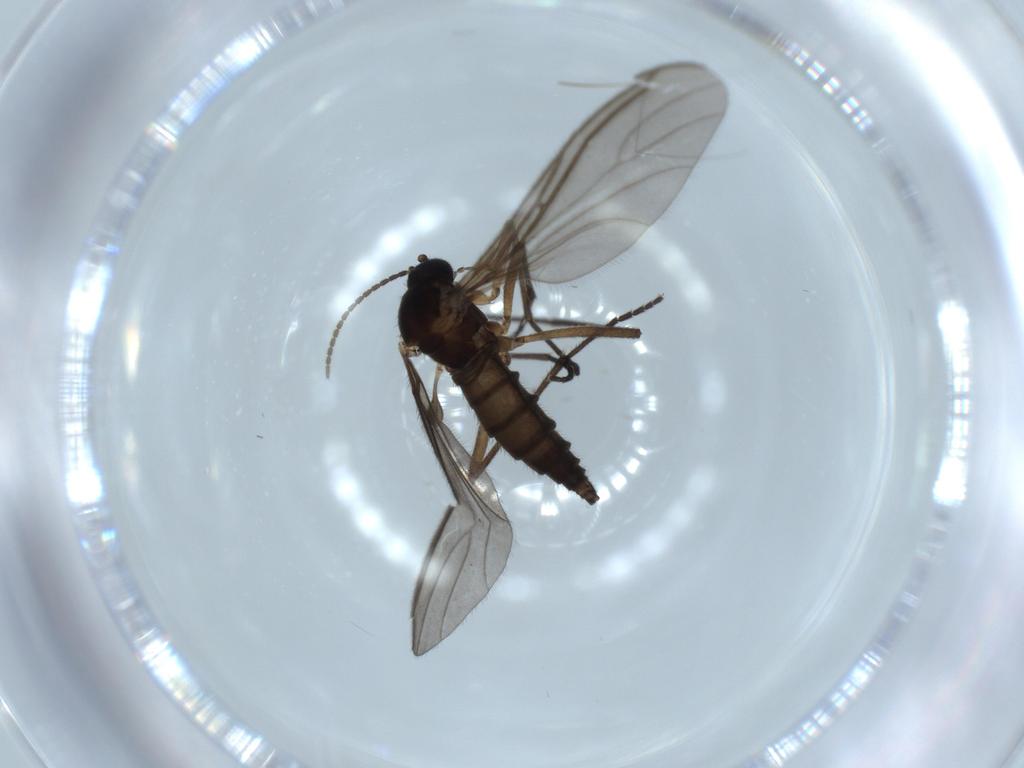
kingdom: Animalia
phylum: Arthropoda
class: Insecta
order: Diptera
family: Sciaridae
